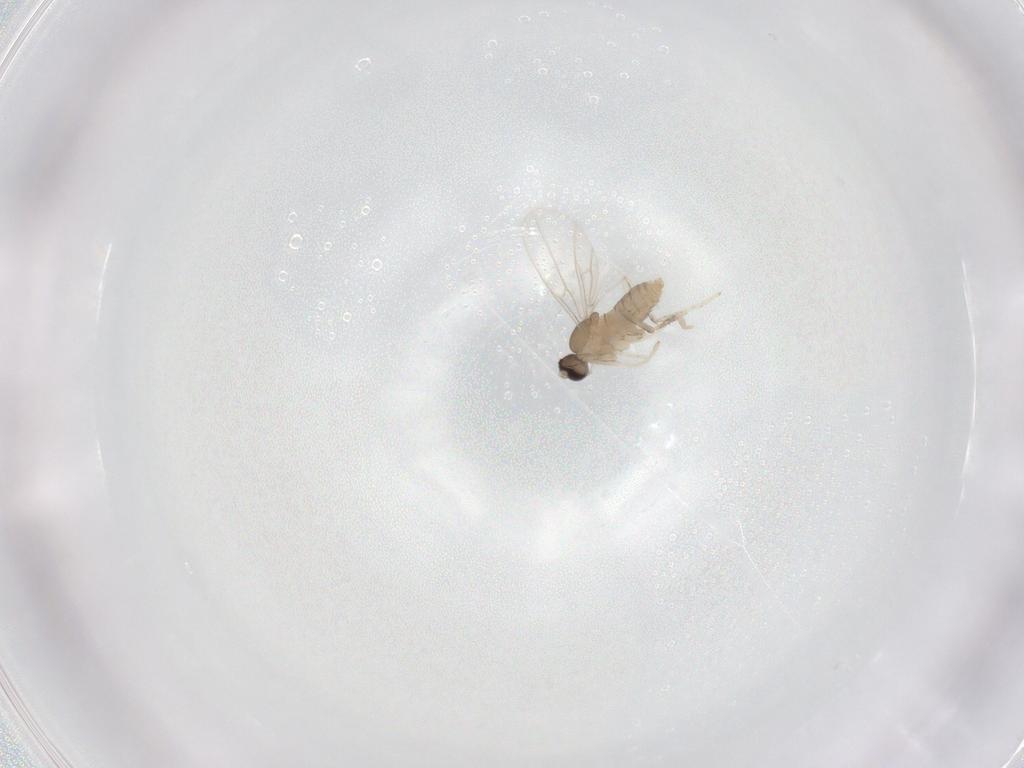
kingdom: Animalia
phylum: Arthropoda
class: Insecta
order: Diptera
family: Cecidomyiidae
